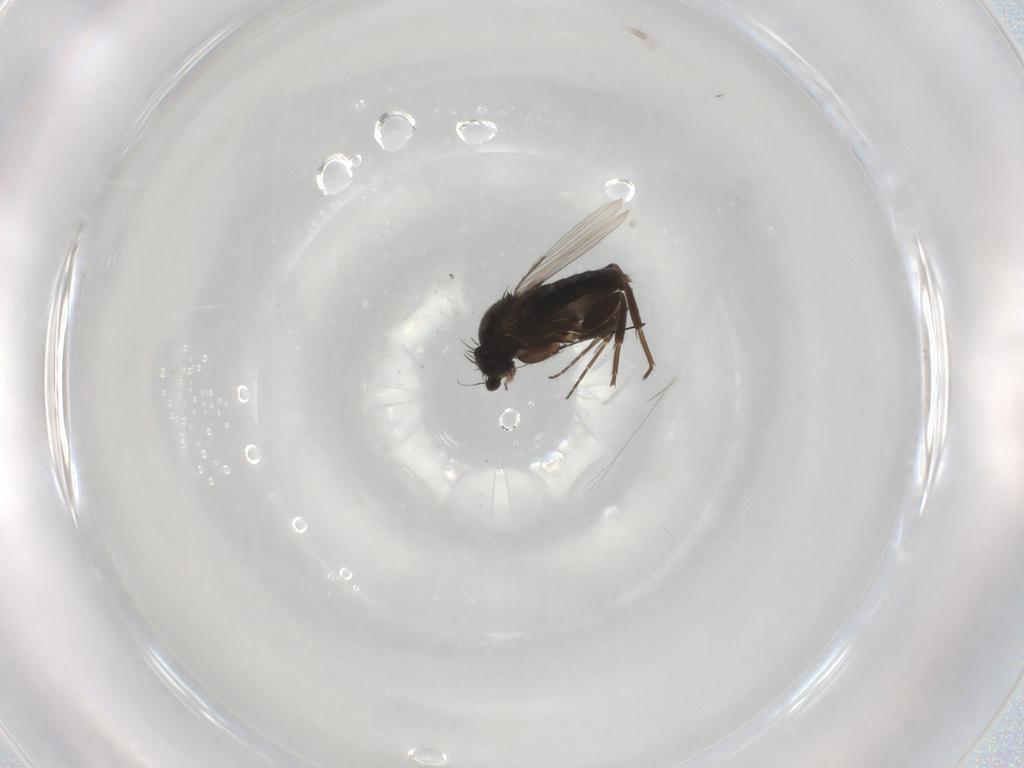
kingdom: Animalia
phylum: Arthropoda
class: Insecta
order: Diptera
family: Phoridae
